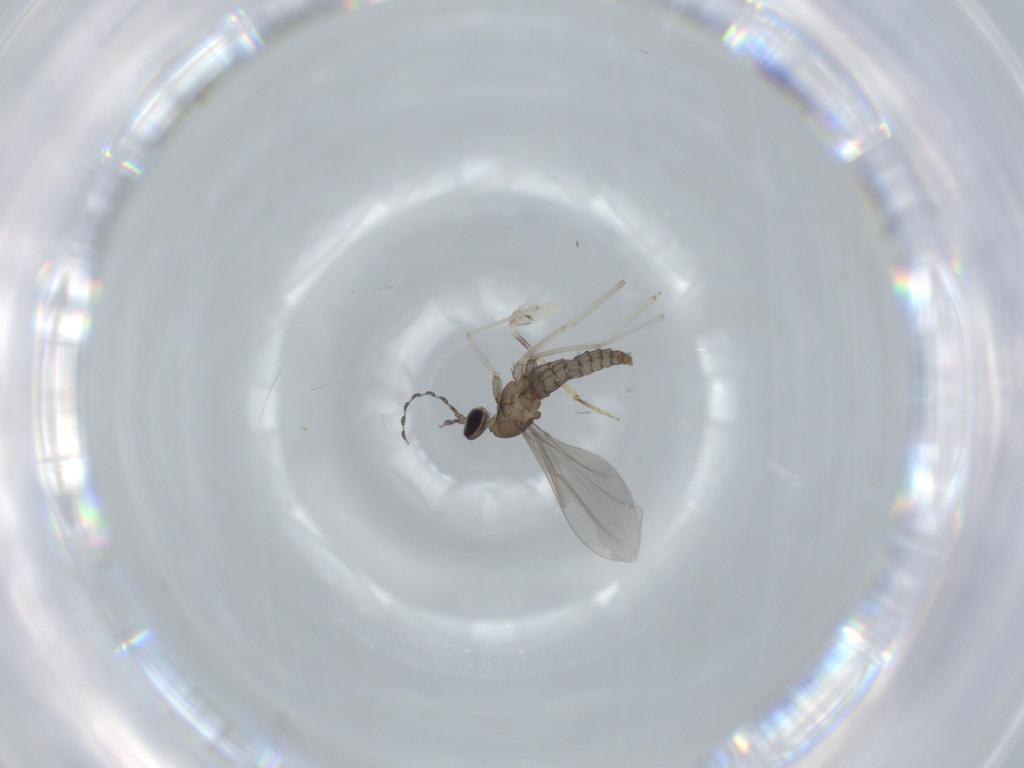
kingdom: Animalia
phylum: Arthropoda
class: Insecta
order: Diptera
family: Cecidomyiidae
